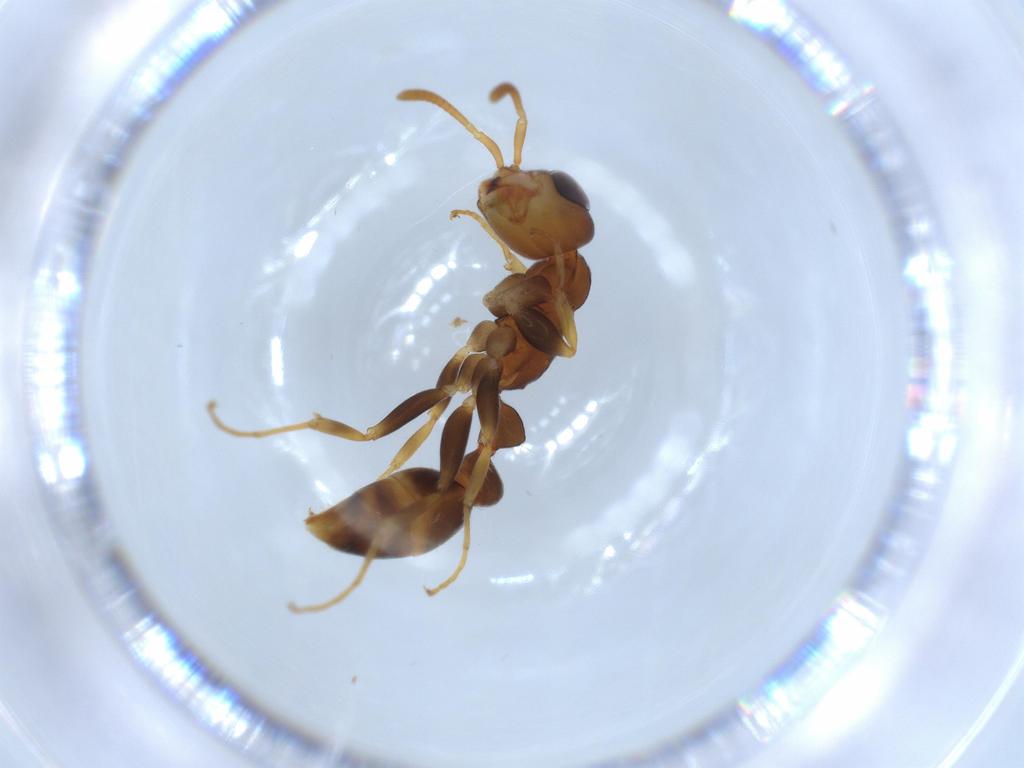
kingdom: Animalia
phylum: Arthropoda
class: Insecta
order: Hymenoptera
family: Formicidae
